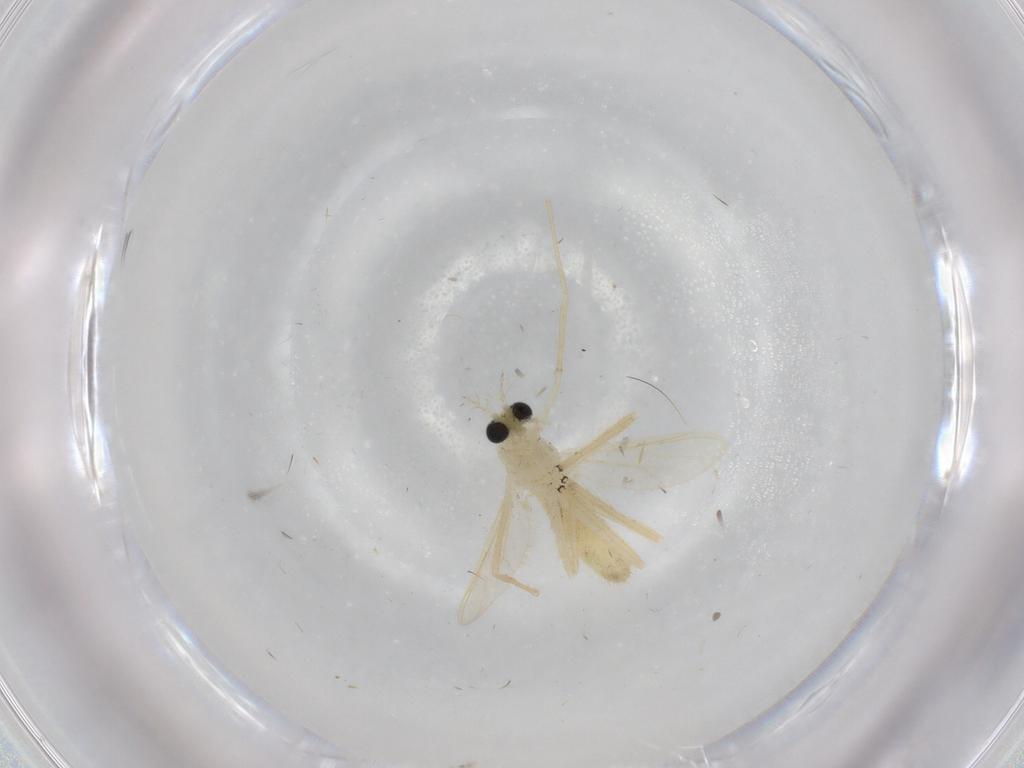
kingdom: Animalia
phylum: Arthropoda
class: Insecta
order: Diptera
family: Chironomidae
